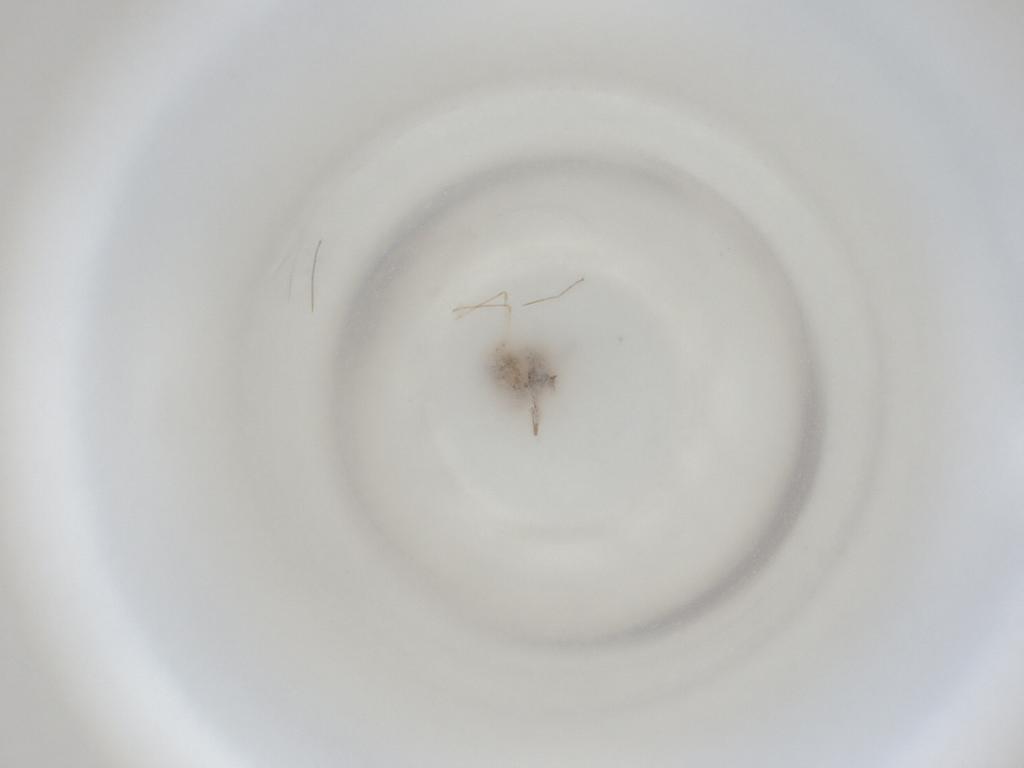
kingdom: Animalia
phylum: Arthropoda
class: Insecta
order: Diptera
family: Cecidomyiidae
